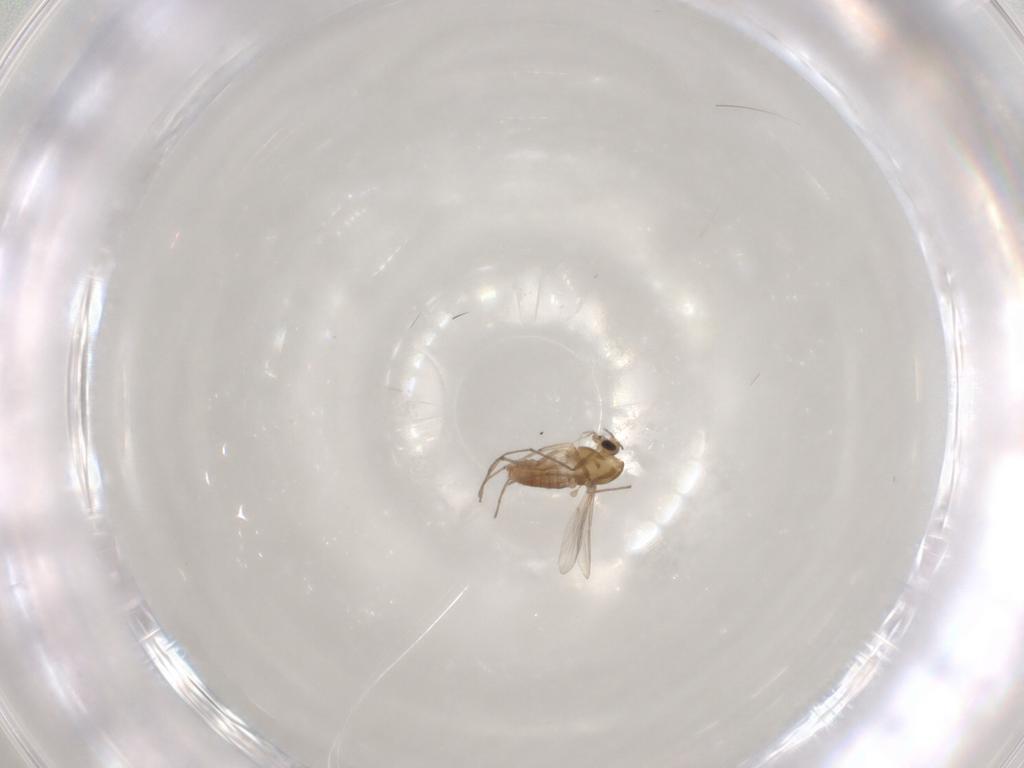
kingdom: Animalia
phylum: Arthropoda
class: Insecta
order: Diptera
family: Chironomidae
